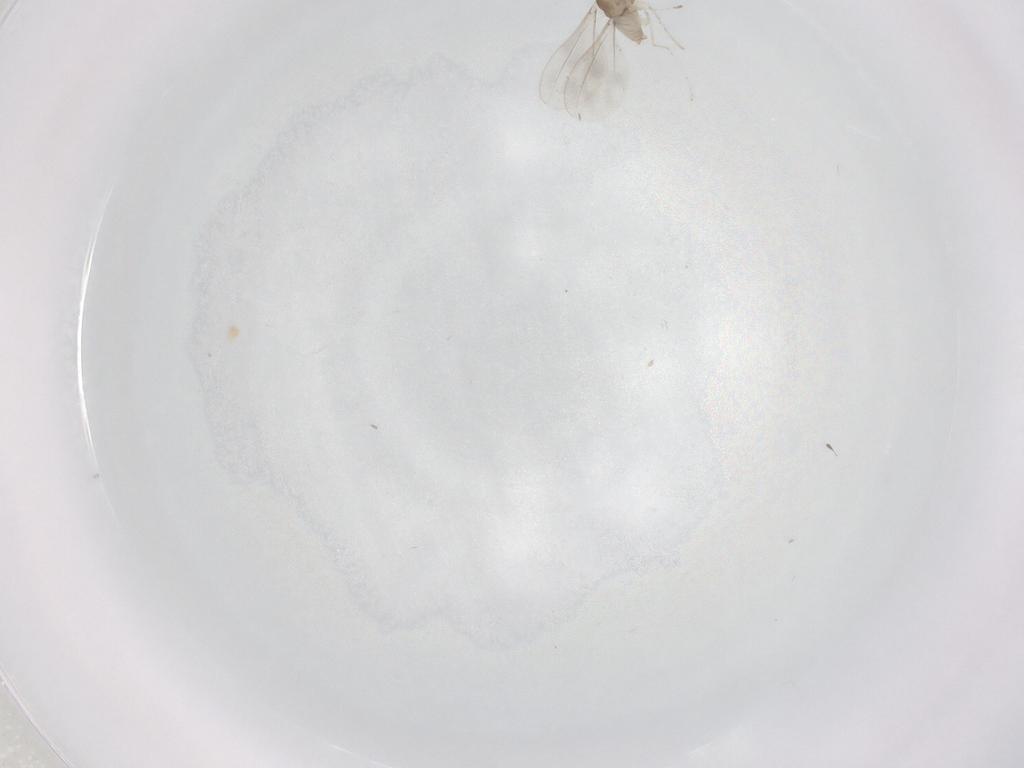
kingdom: Animalia
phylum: Arthropoda
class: Insecta
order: Diptera
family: Cecidomyiidae
